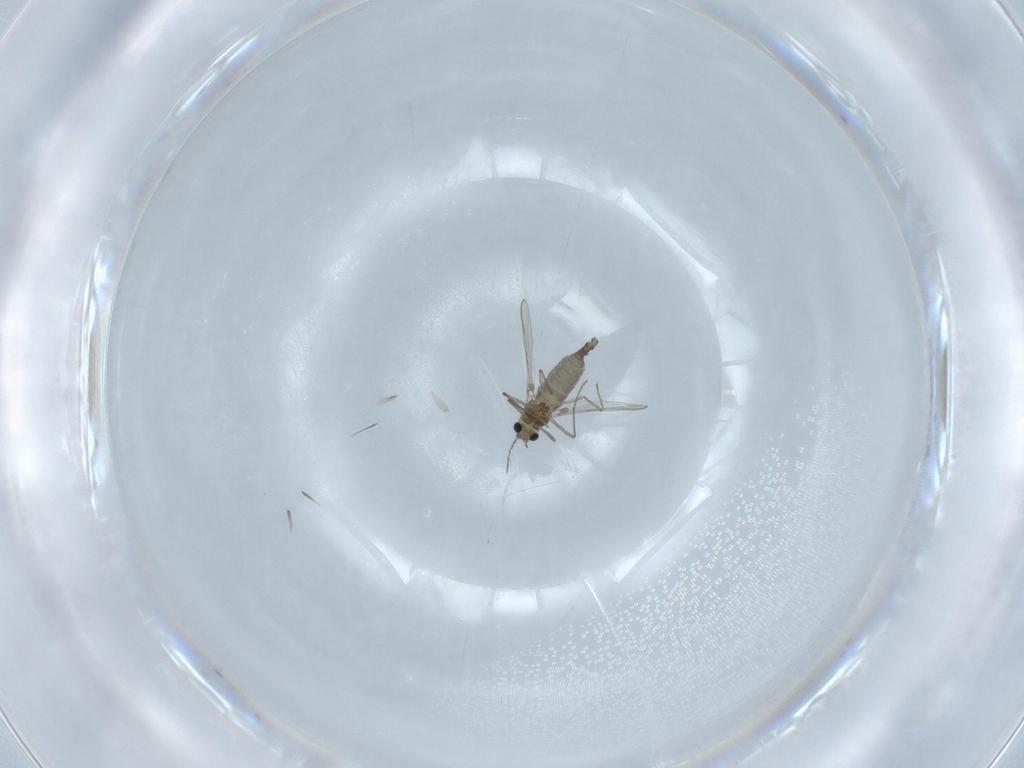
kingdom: Animalia
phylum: Arthropoda
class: Insecta
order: Diptera
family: Chironomidae
